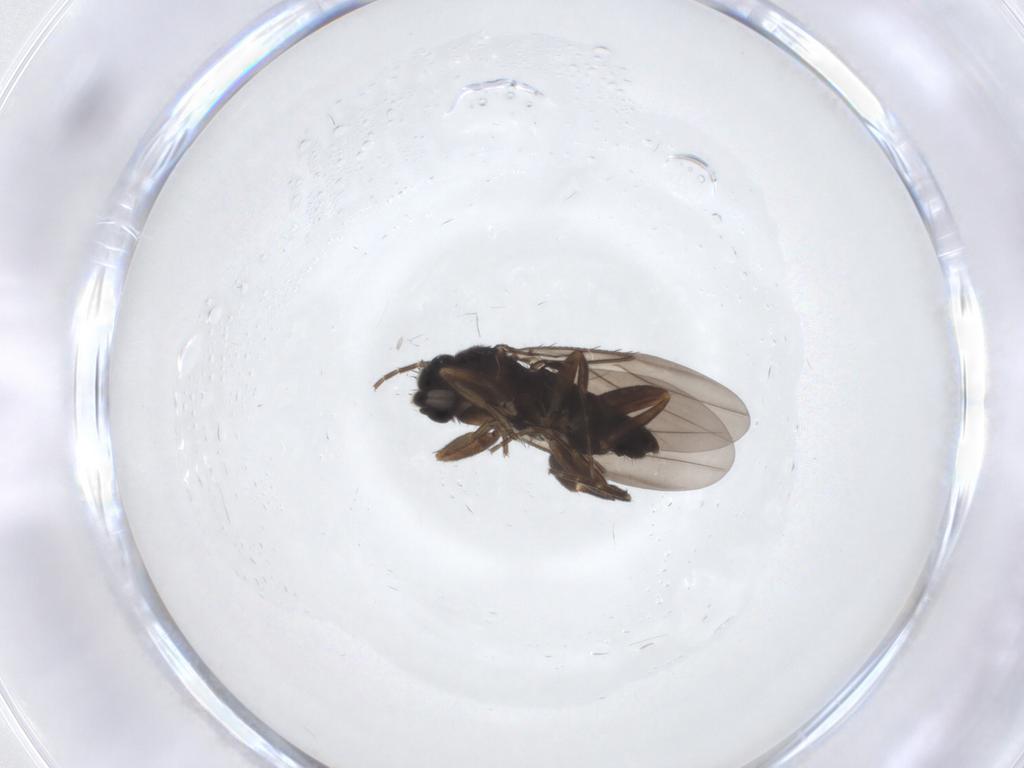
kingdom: Animalia
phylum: Arthropoda
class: Insecta
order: Diptera
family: Phoridae
